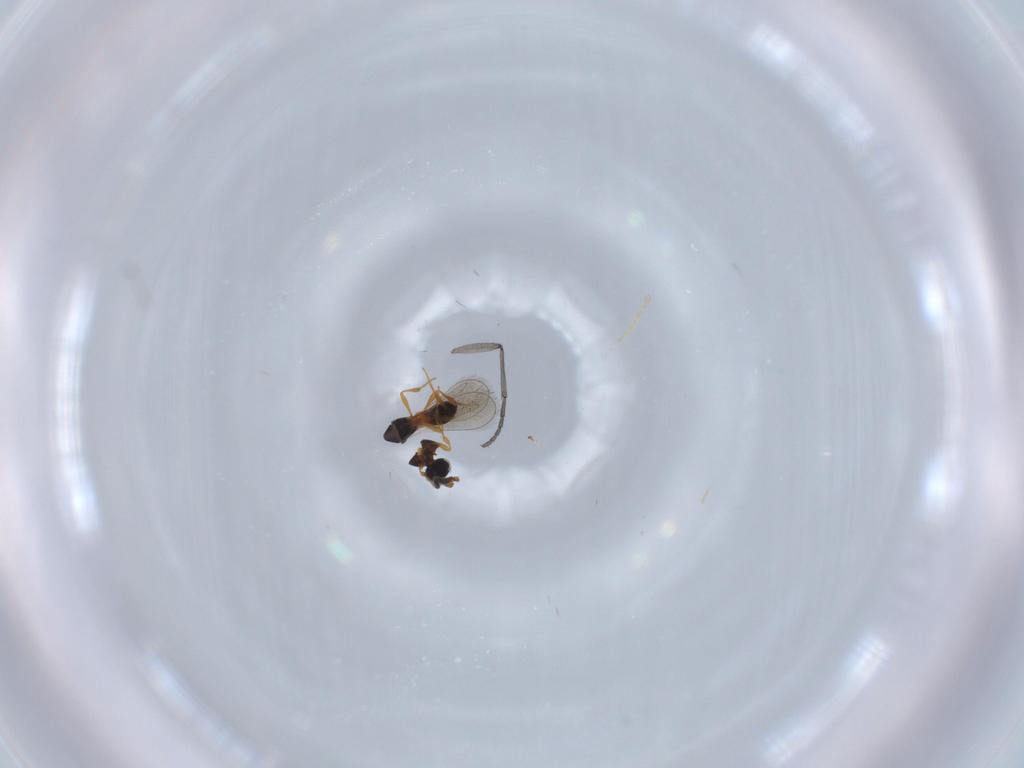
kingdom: Animalia
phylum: Arthropoda
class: Insecta
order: Hymenoptera
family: Platygastridae
